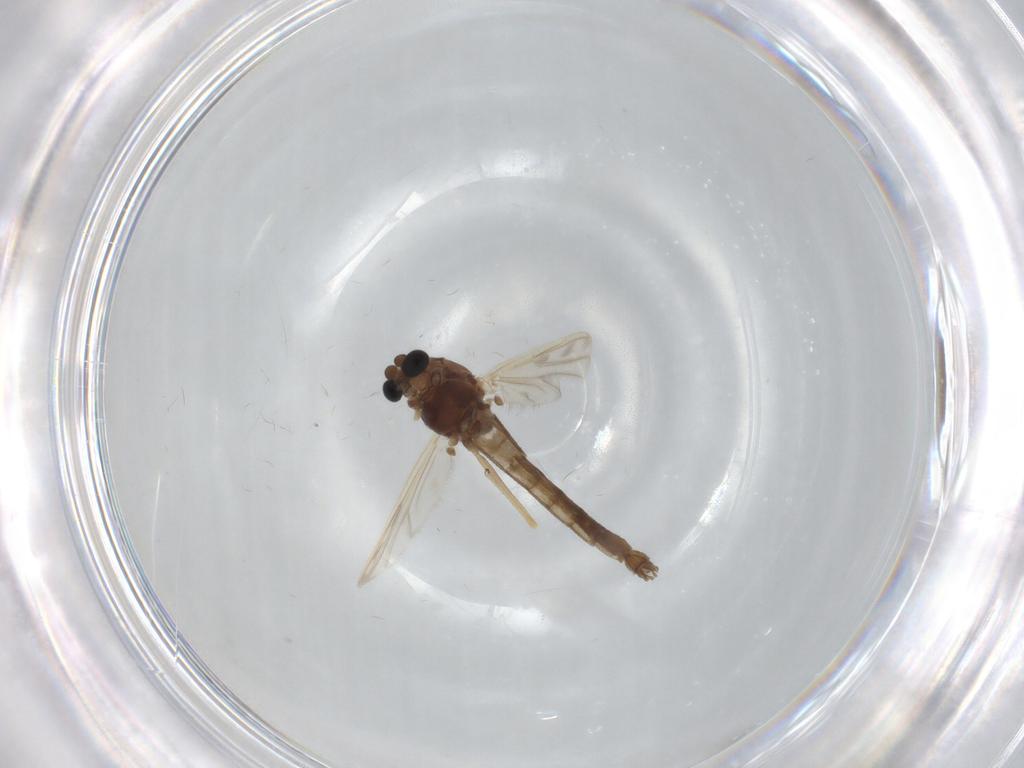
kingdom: Animalia
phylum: Arthropoda
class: Insecta
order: Diptera
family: Chironomidae
